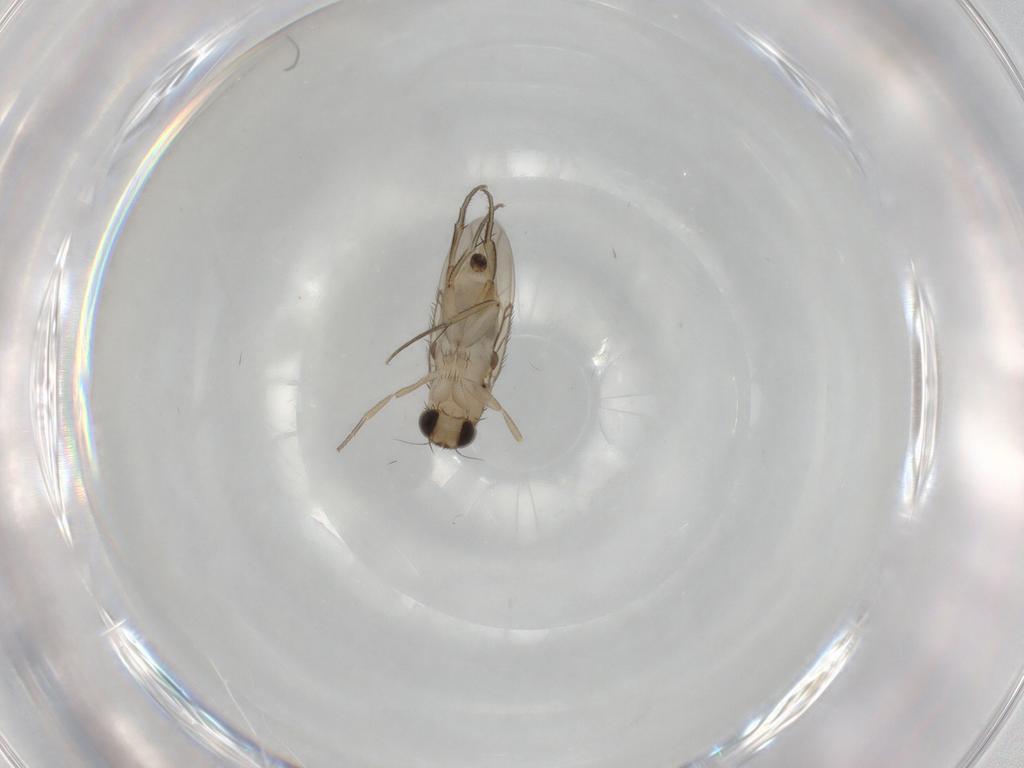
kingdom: Animalia
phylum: Arthropoda
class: Insecta
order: Diptera
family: Phoridae
